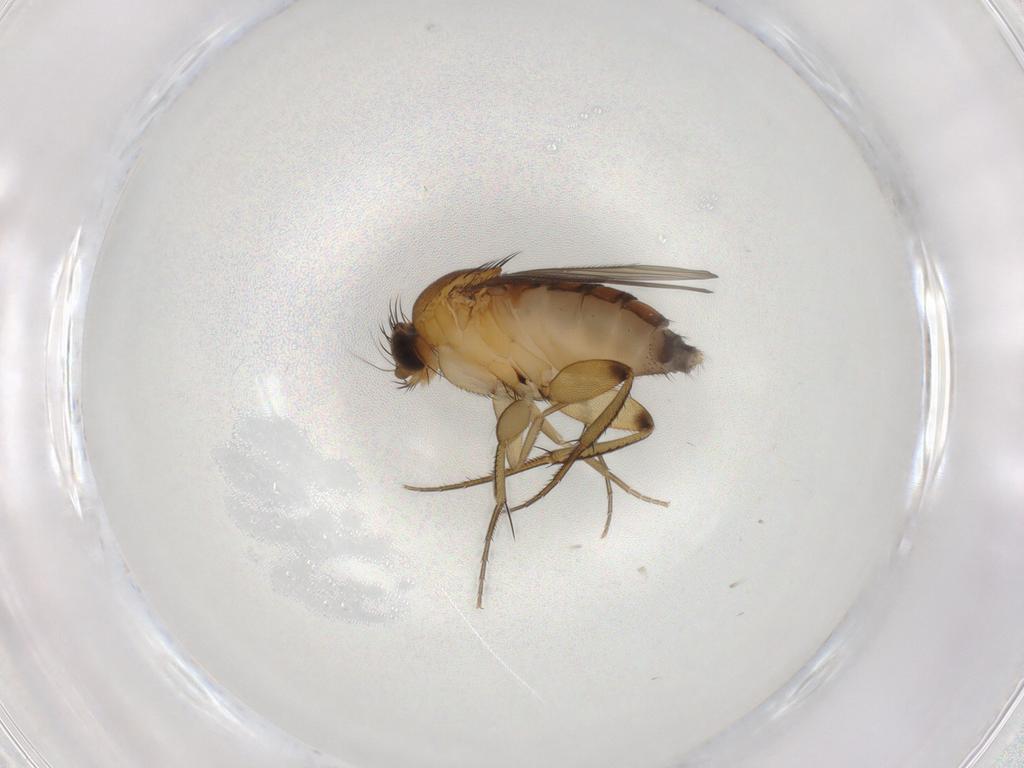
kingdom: Animalia
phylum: Arthropoda
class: Insecta
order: Diptera
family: Phoridae
